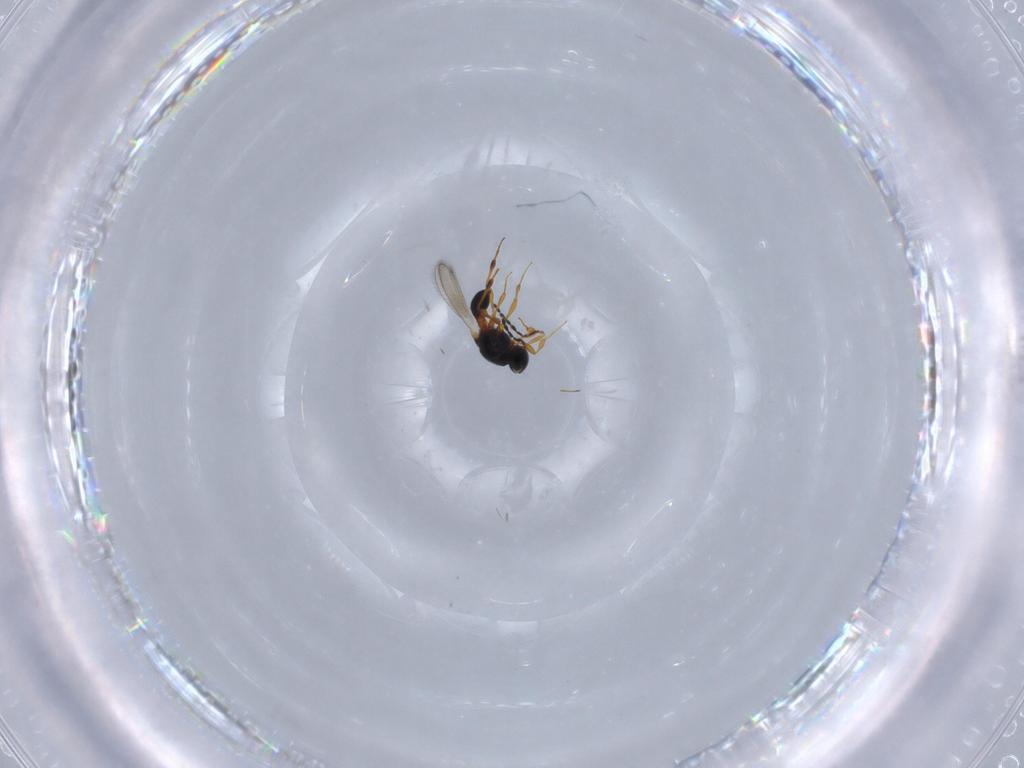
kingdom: Animalia
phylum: Arthropoda
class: Insecta
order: Hymenoptera
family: Platygastridae
